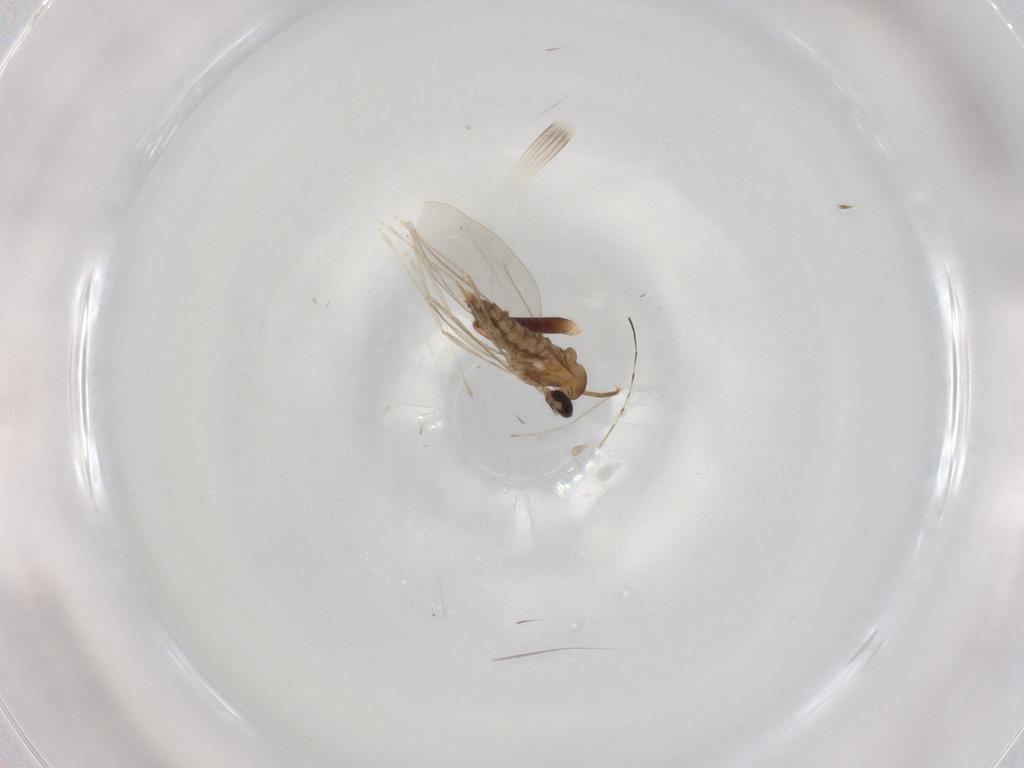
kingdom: Animalia
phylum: Arthropoda
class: Insecta
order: Diptera
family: Cecidomyiidae
